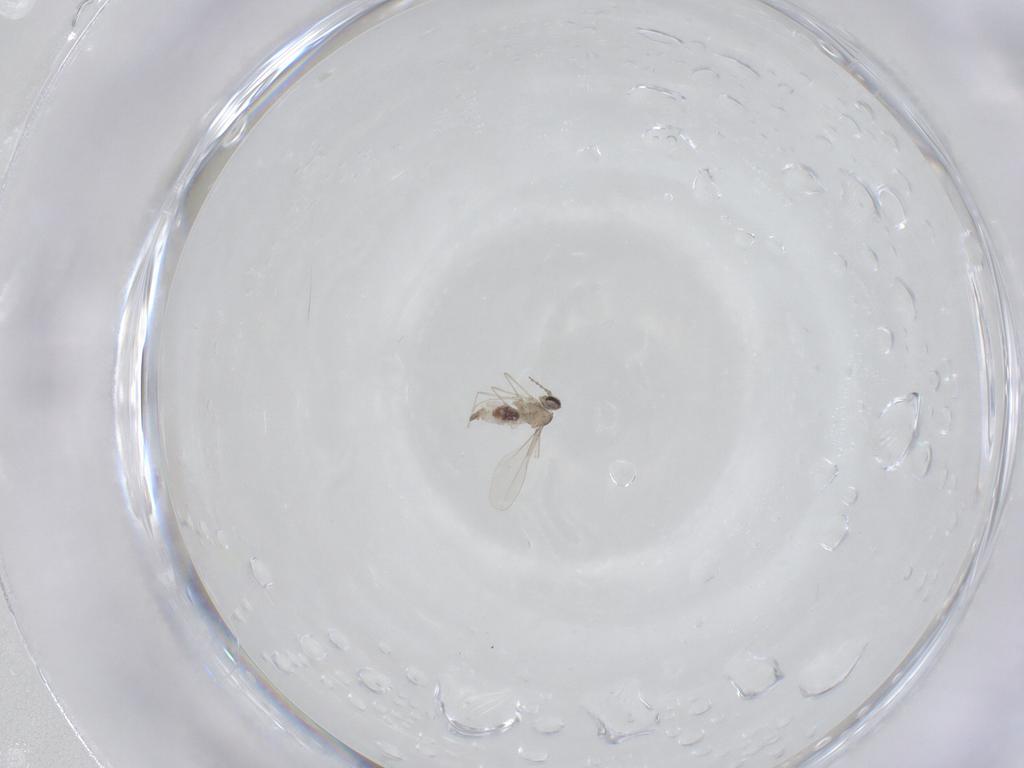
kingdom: Animalia
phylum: Arthropoda
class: Insecta
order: Diptera
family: Cecidomyiidae
